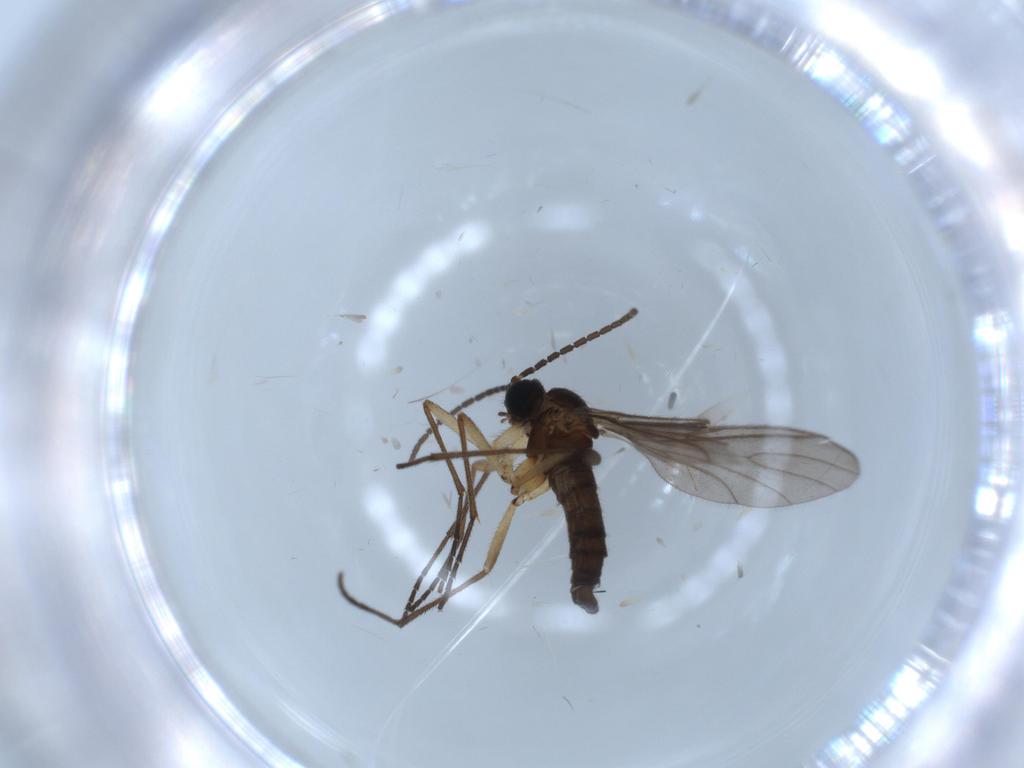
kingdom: Animalia
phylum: Arthropoda
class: Insecta
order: Diptera
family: Sciaridae
